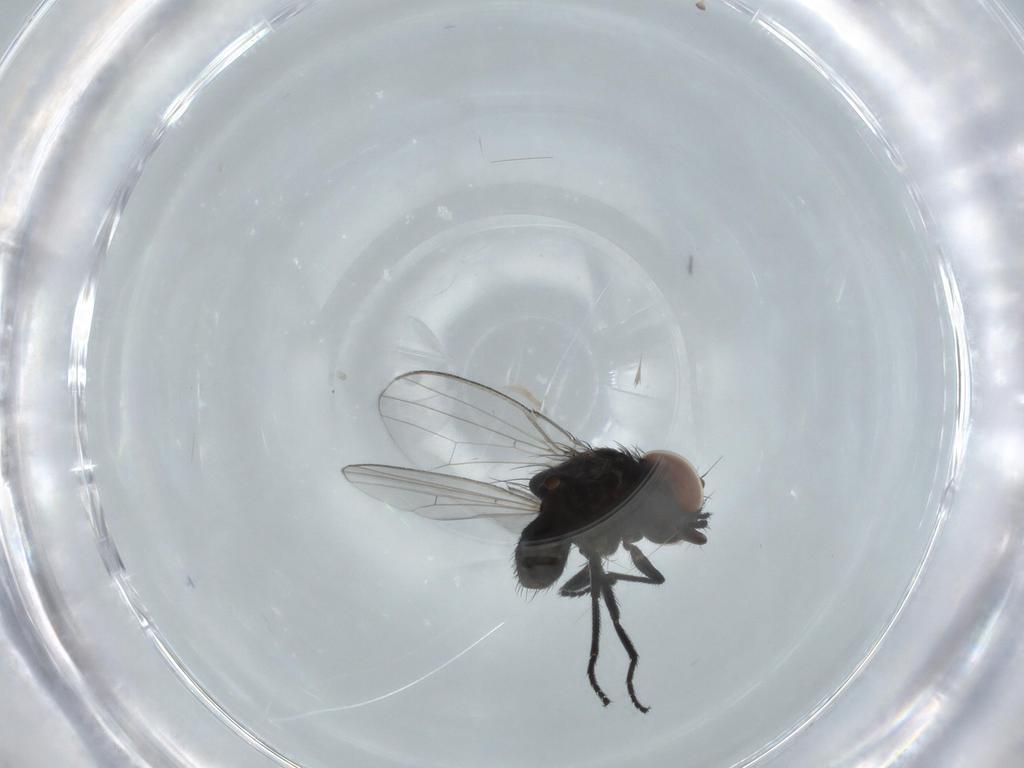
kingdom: Animalia
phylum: Arthropoda
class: Insecta
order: Diptera
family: Milichiidae
